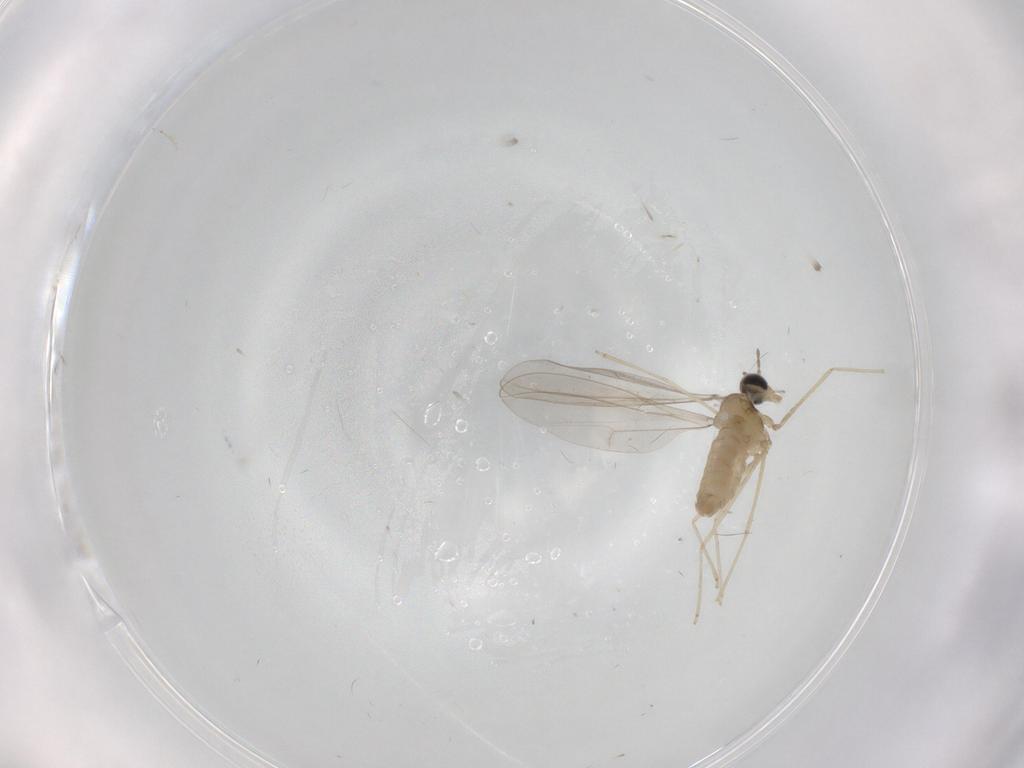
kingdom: Animalia
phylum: Arthropoda
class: Insecta
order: Diptera
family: Cecidomyiidae
